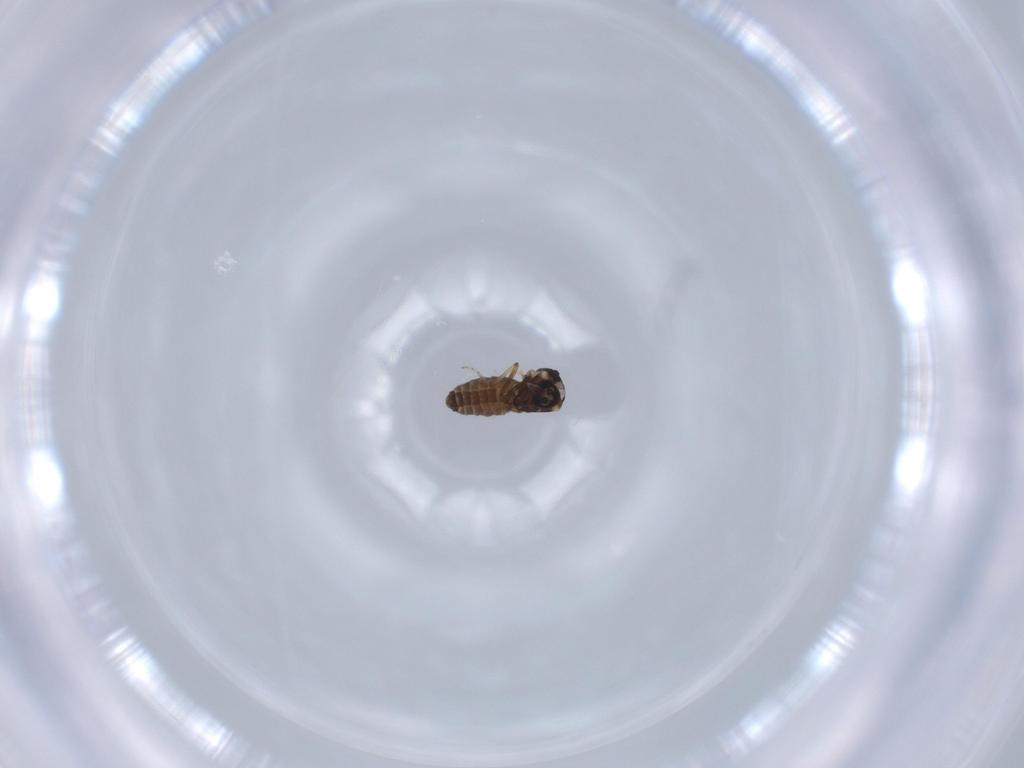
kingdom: Animalia
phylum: Arthropoda
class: Insecta
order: Diptera
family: Ceratopogonidae
